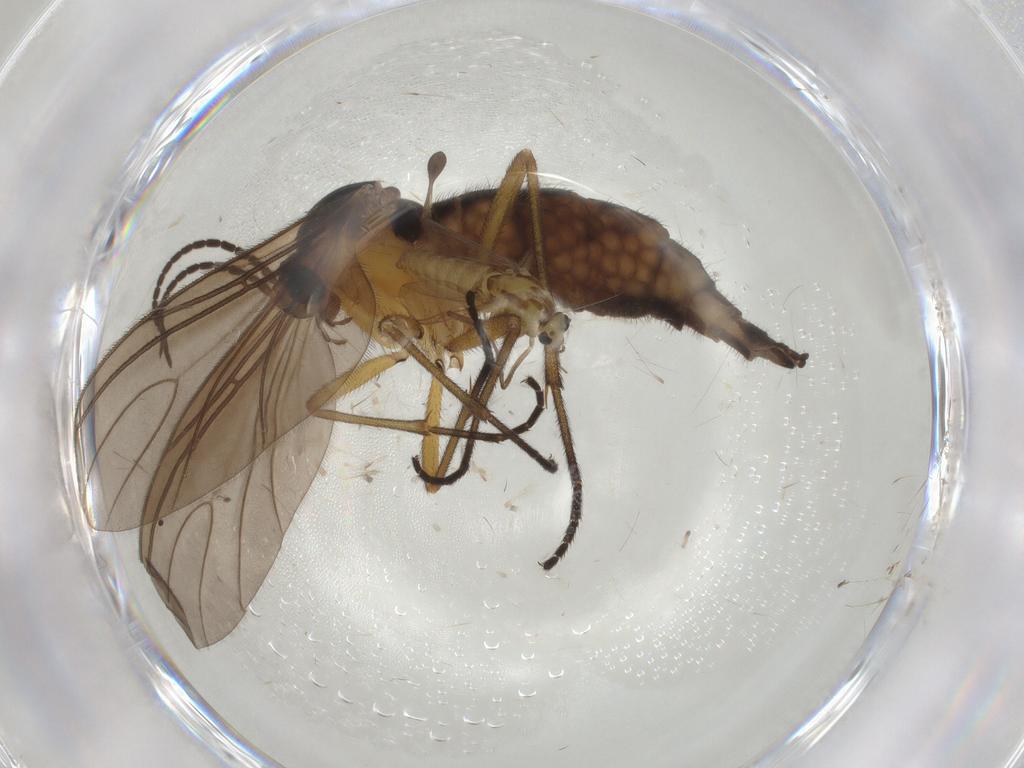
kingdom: Animalia
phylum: Arthropoda
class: Insecta
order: Diptera
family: Sciaridae
